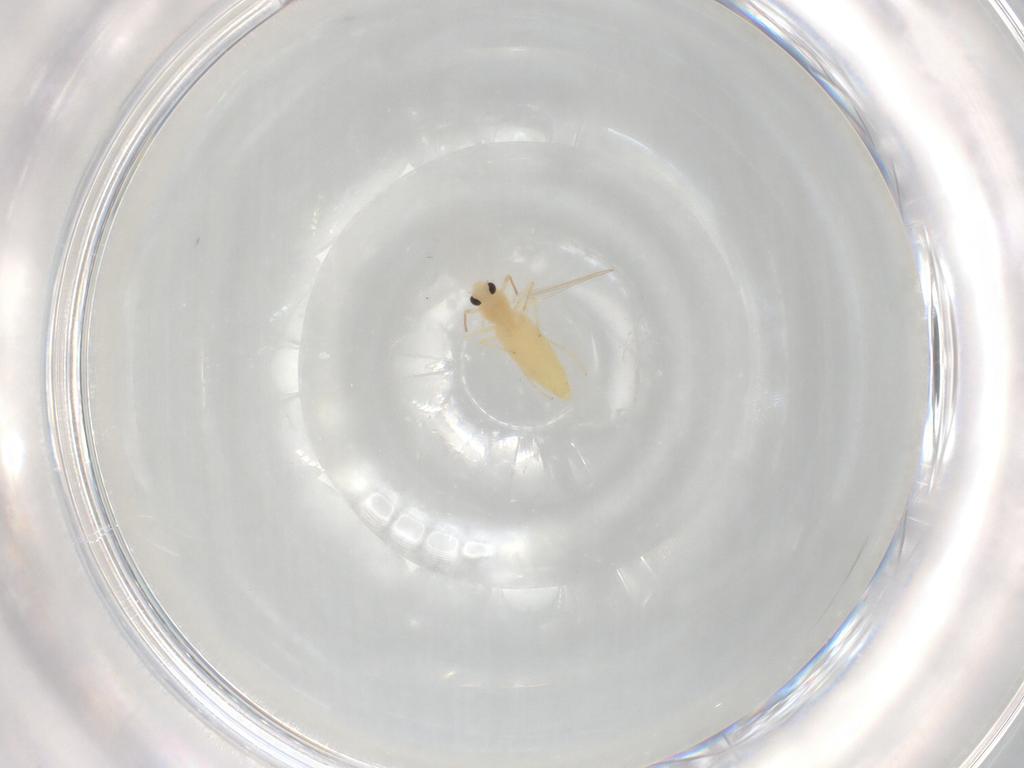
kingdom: Animalia
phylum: Arthropoda
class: Insecta
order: Diptera
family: Chironomidae
